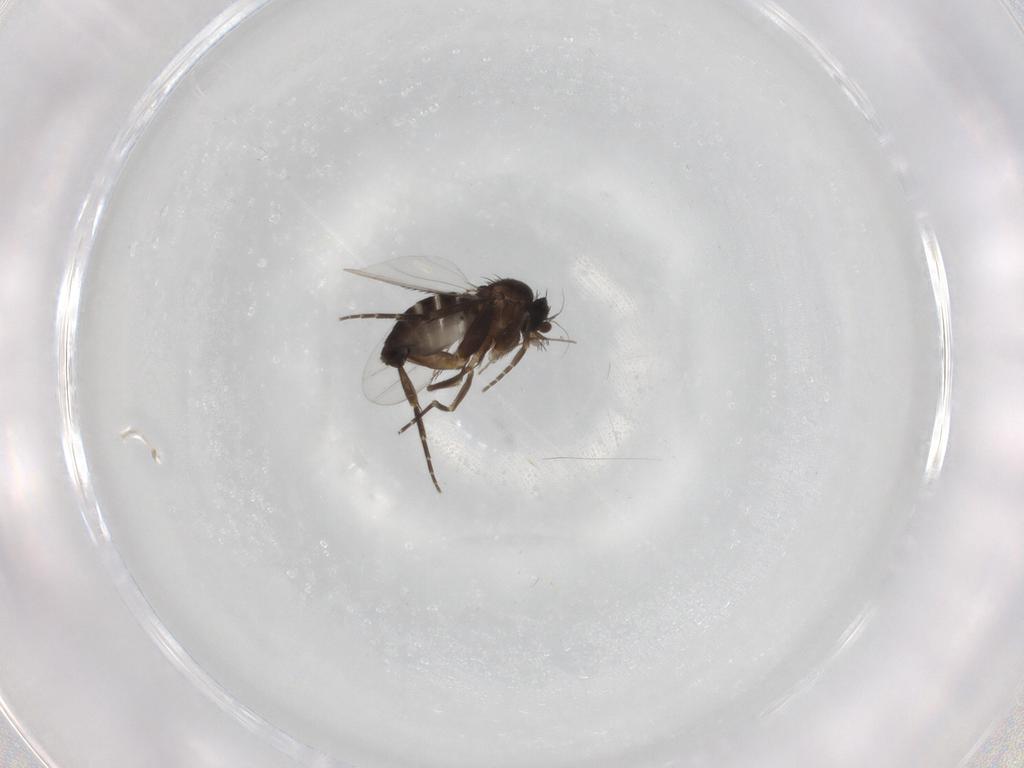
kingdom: Animalia
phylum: Arthropoda
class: Insecta
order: Diptera
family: Phoridae
